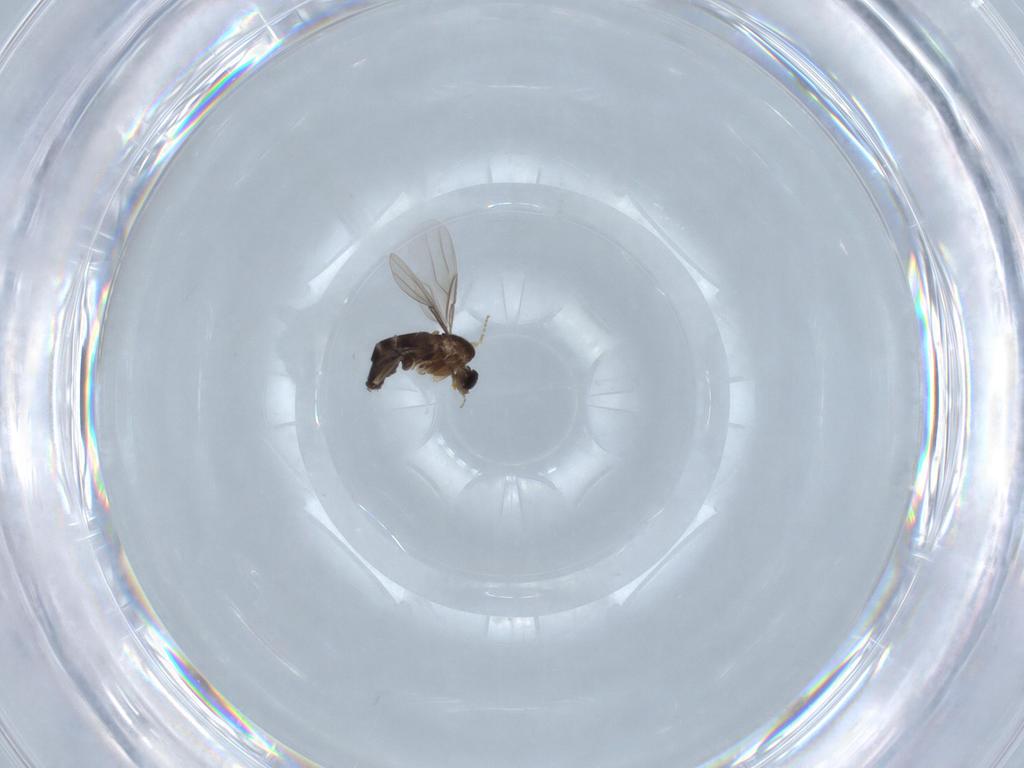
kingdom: Animalia
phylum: Arthropoda
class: Insecta
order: Diptera
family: Phoridae
